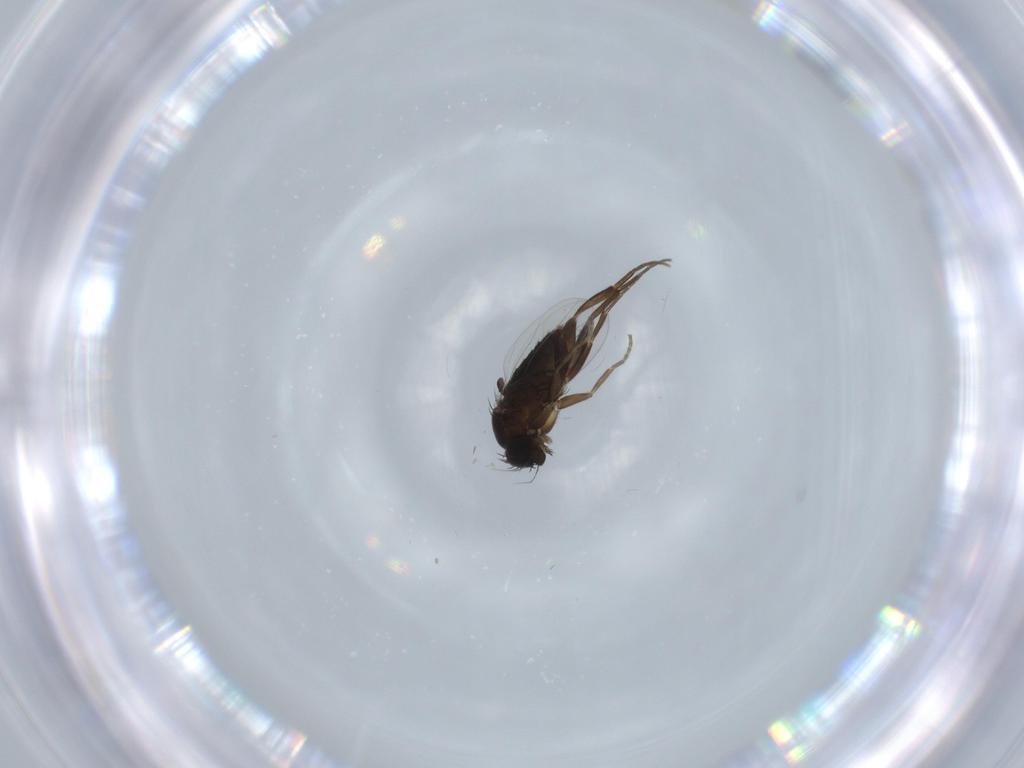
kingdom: Animalia
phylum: Arthropoda
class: Insecta
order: Diptera
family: Phoridae
